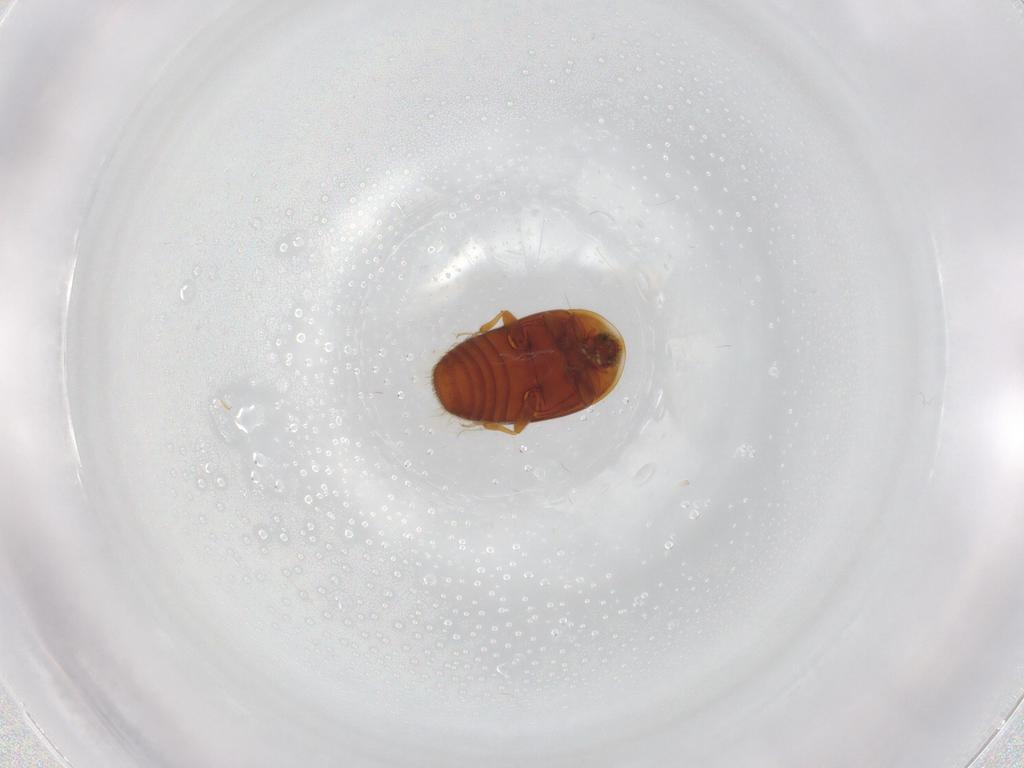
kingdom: Animalia
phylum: Arthropoda
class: Insecta
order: Coleoptera
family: Corylophidae
